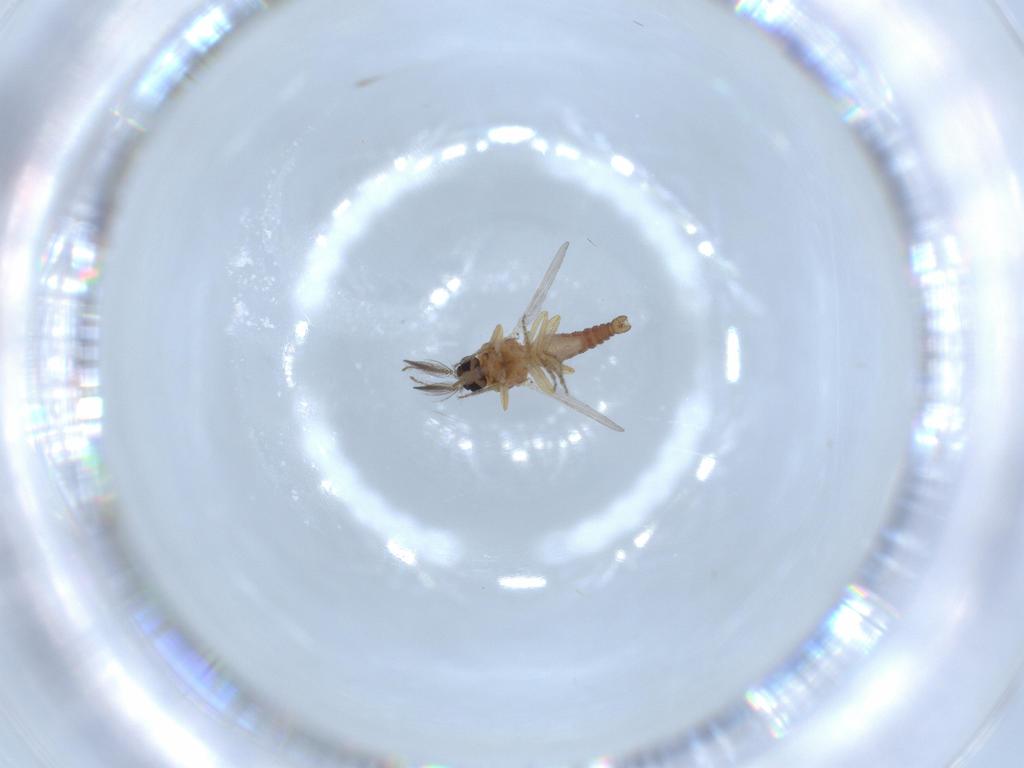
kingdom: Animalia
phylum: Arthropoda
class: Insecta
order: Diptera
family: Ceratopogonidae
